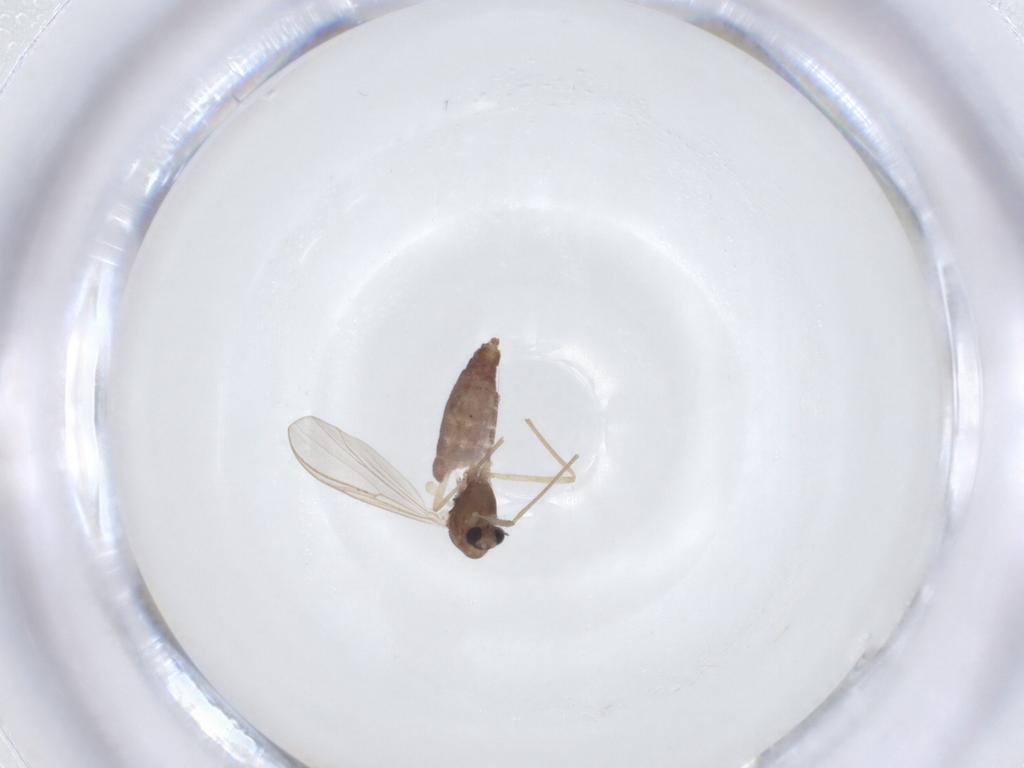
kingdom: Animalia
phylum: Arthropoda
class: Insecta
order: Diptera
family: Chironomidae
